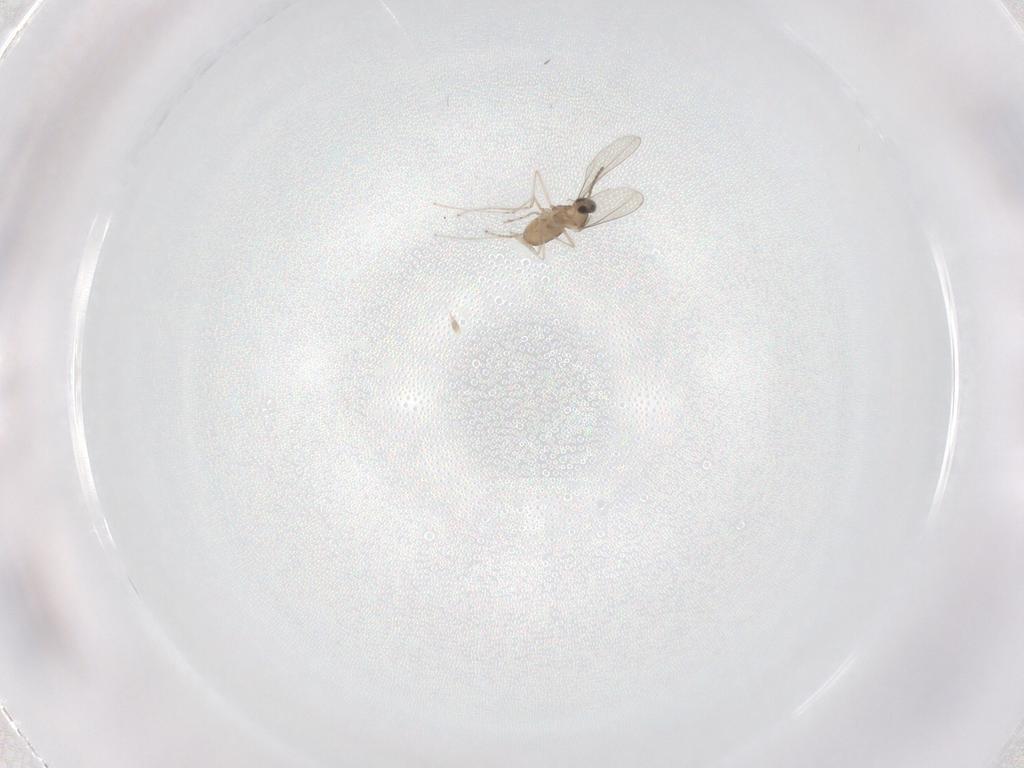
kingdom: Animalia
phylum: Arthropoda
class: Insecta
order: Diptera
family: Cecidomyiidae
